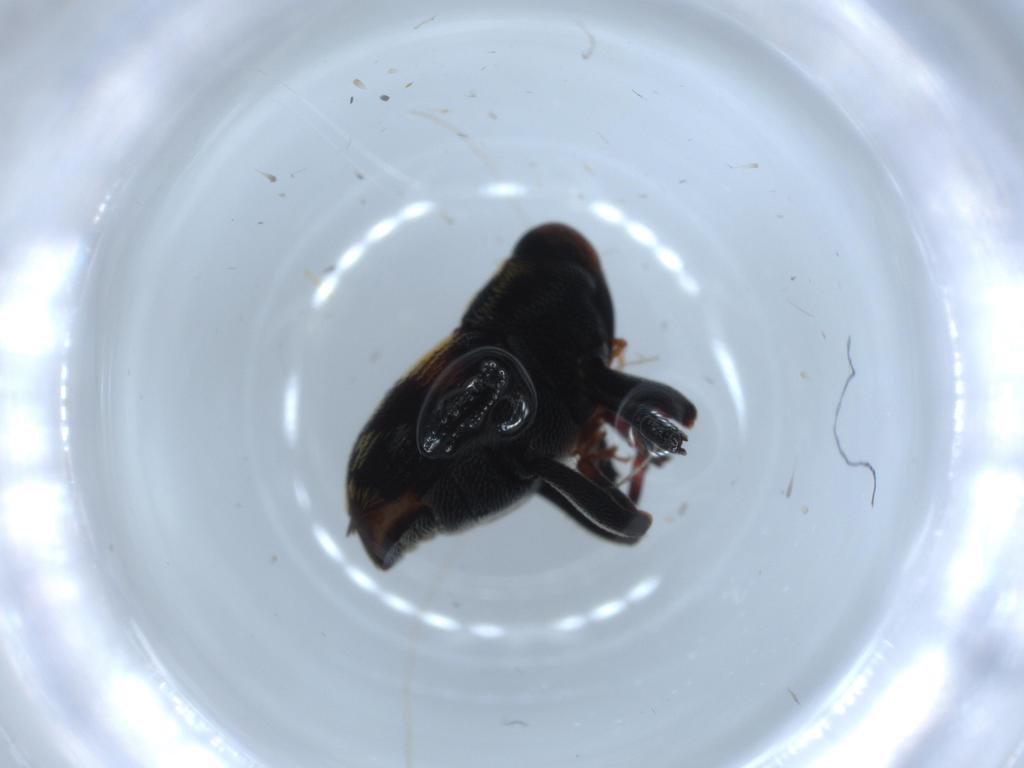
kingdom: Animalia
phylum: Arthropoda
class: Insecta
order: Coleoptera
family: Curculionidae
